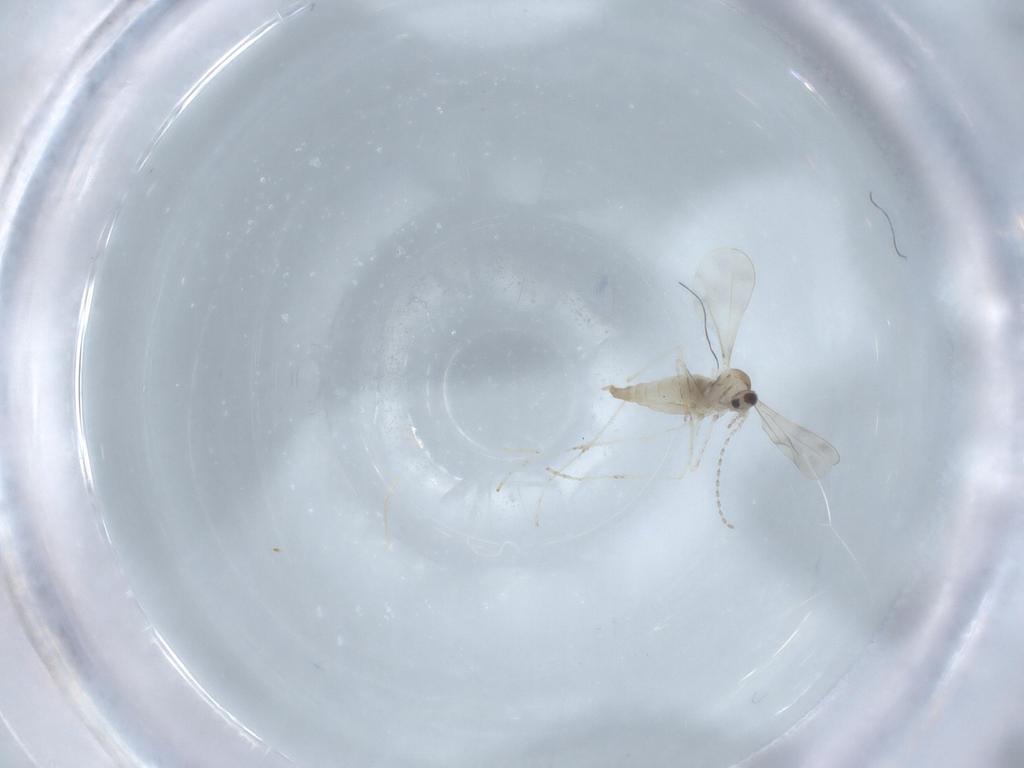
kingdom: Animalia
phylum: Arthropoda
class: Insecta
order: Diptera
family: Cecidomyiidae
